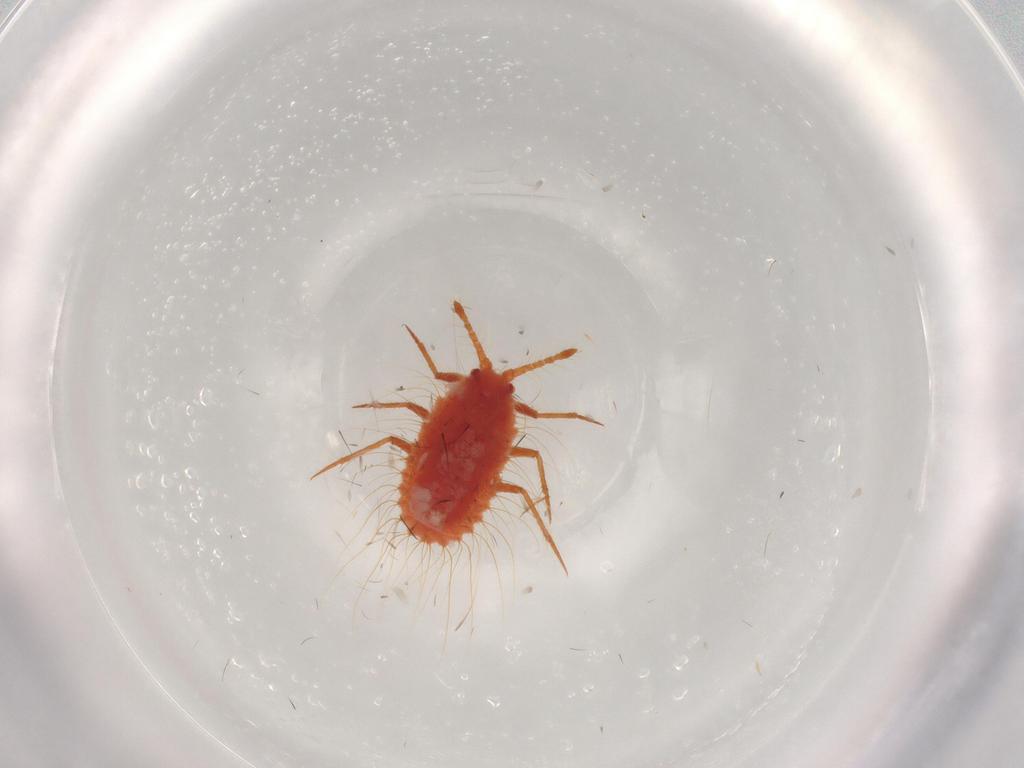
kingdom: Animalia
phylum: Arthropoda
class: Insecta
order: Hemiptera
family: Monophlebidae
